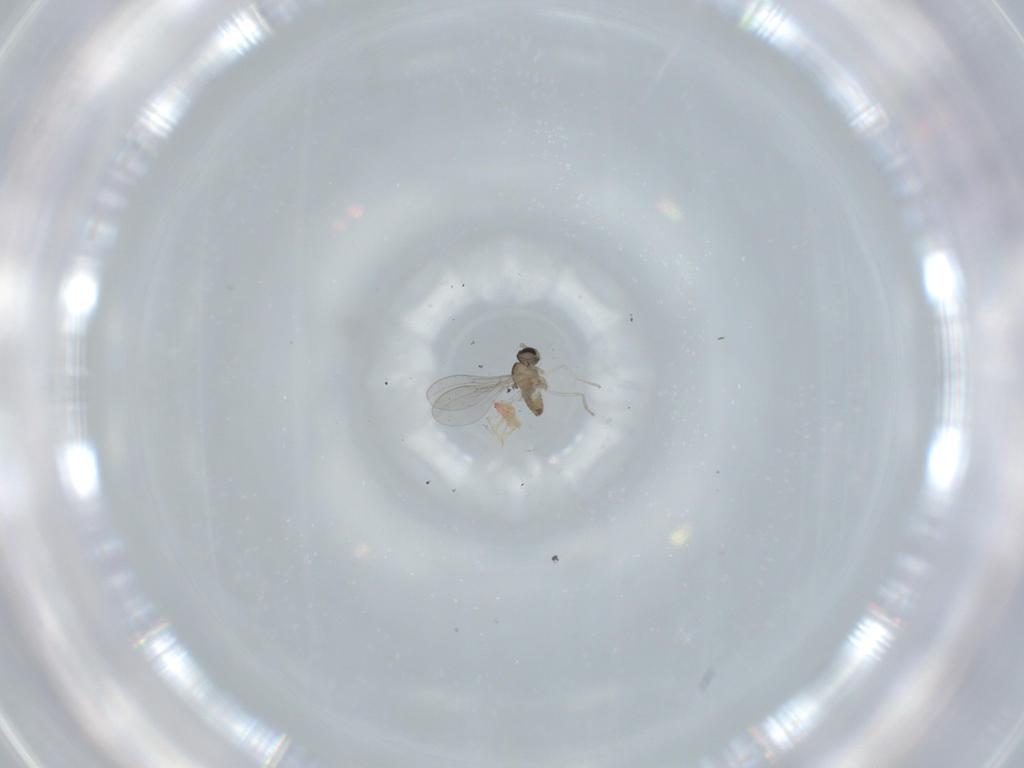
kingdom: Animalia
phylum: Arthropoda
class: Insecta
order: Diptera
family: Cecidomyiidae
